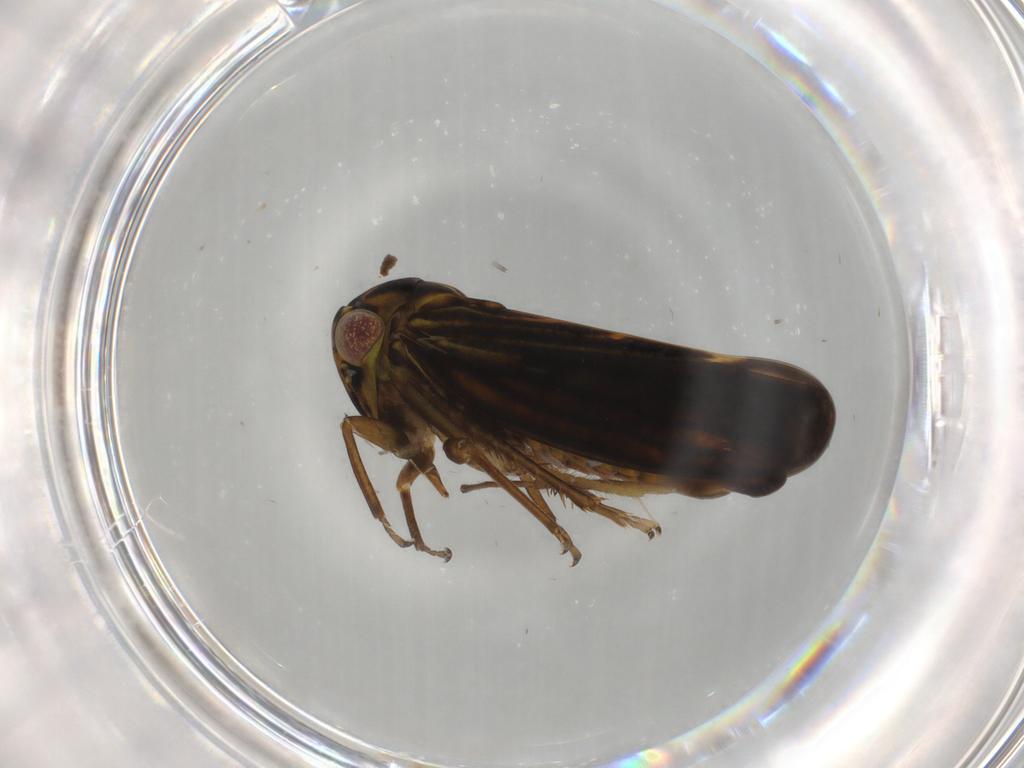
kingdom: Animalia
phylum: Arthropoda
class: Insecta
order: Hemiptera
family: Cicadellidae
